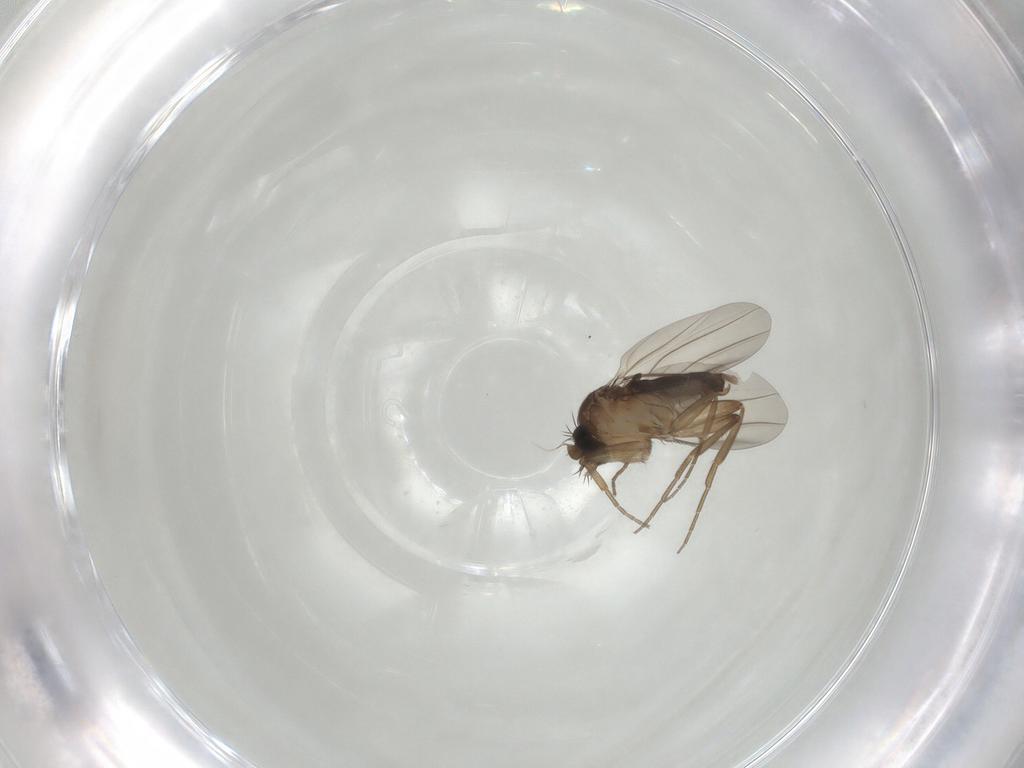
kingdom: Animalia
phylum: Arthropoda
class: Insecta
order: Diptera
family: Phoridae
